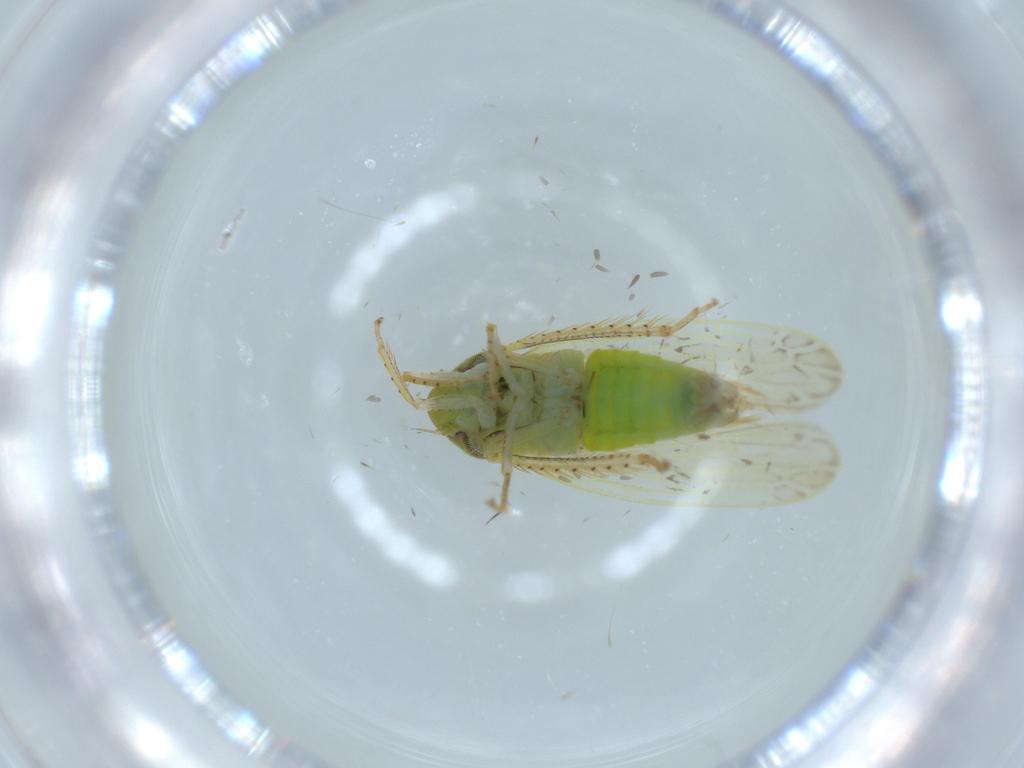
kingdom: Animalia
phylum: Arthropoda
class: Insecta
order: Hemiptera
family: Cicadellidae
